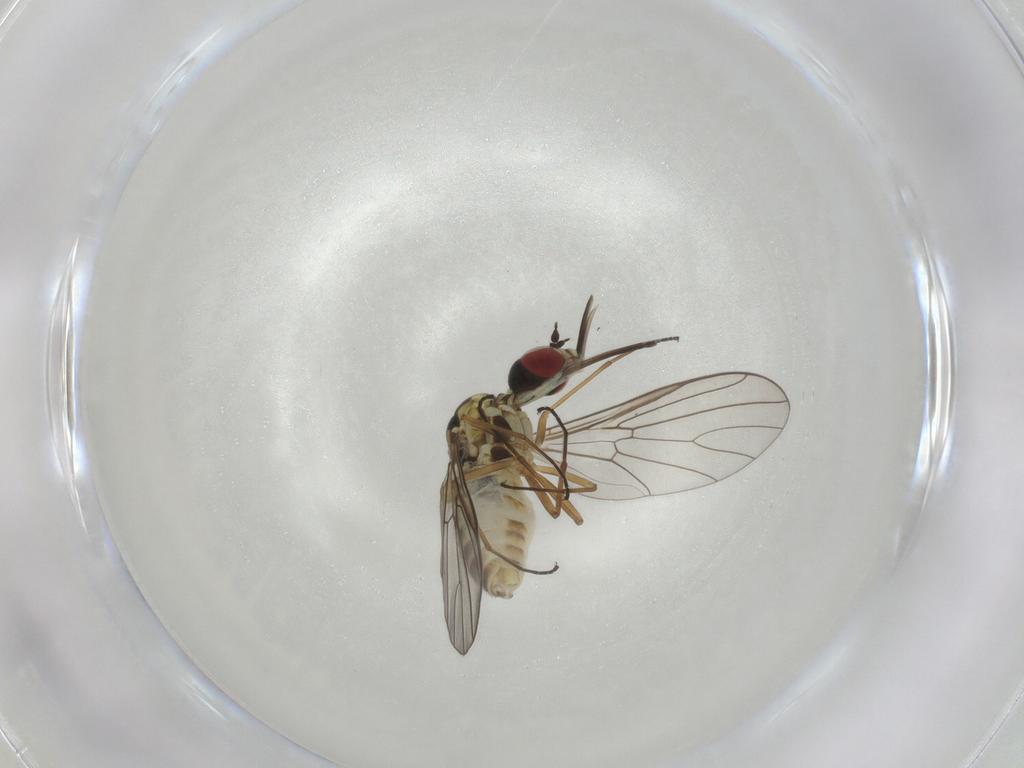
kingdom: Animalia
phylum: Arthropoda
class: Insecta
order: Diptera
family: Bombyliidae
